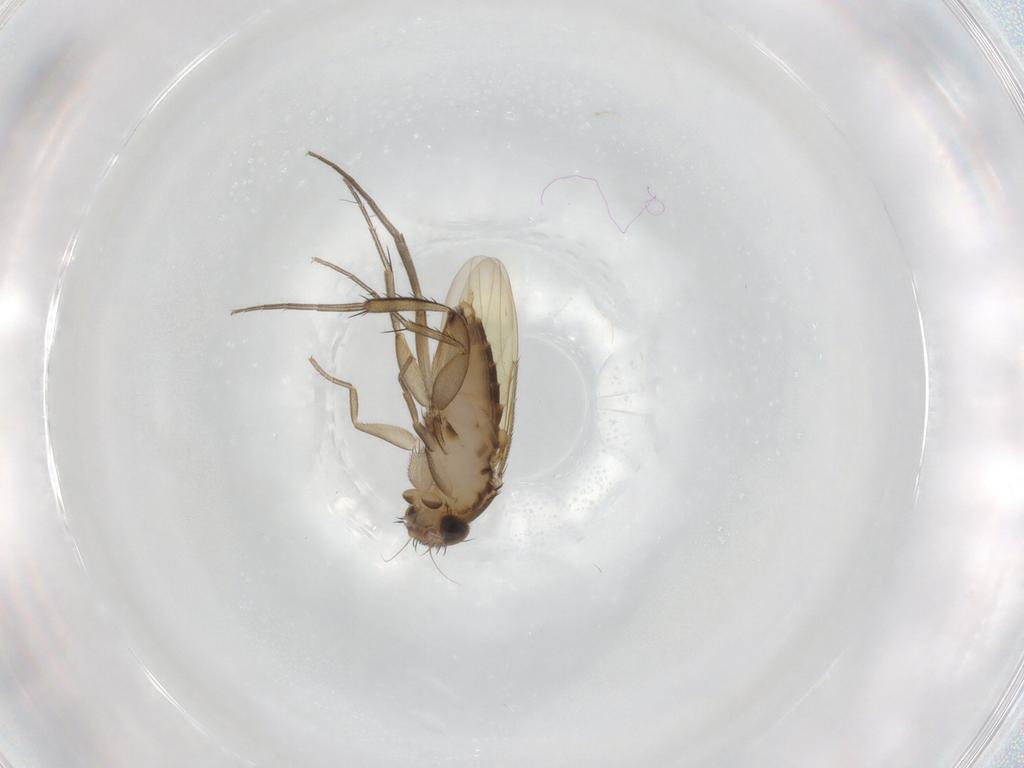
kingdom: Animalia
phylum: Arthropoda
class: Insecta
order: Diptera
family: Phoridae
